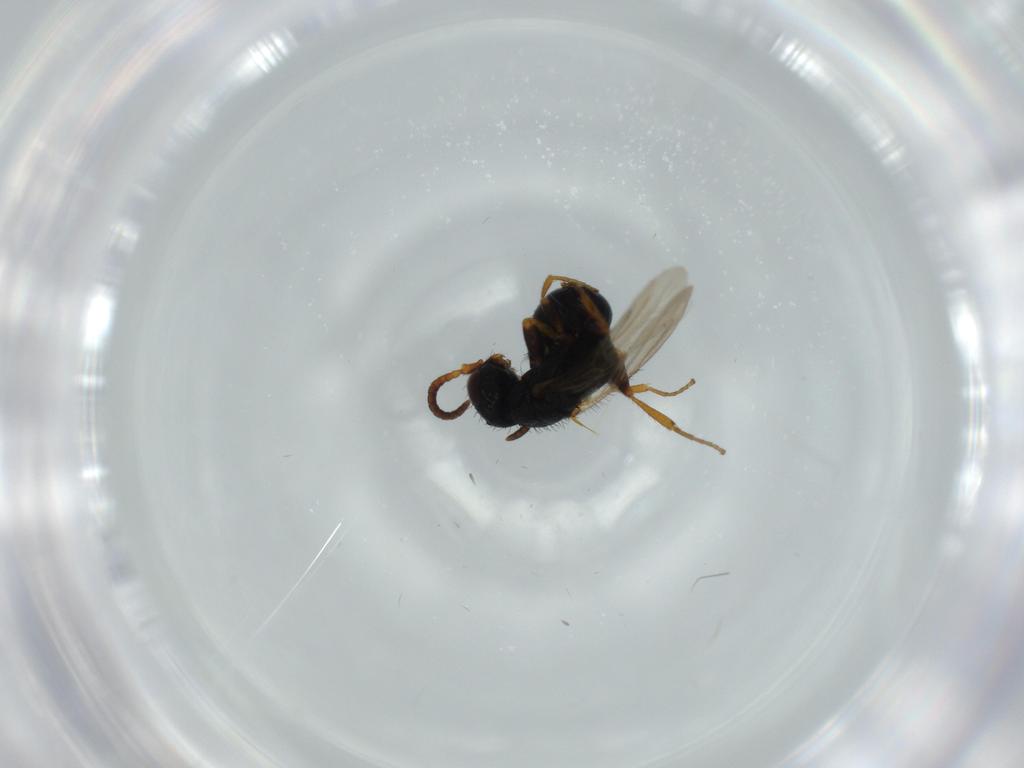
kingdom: Animalia
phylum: Arthropoda
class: Insecta
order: Hymenoptera
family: Bethylidae
